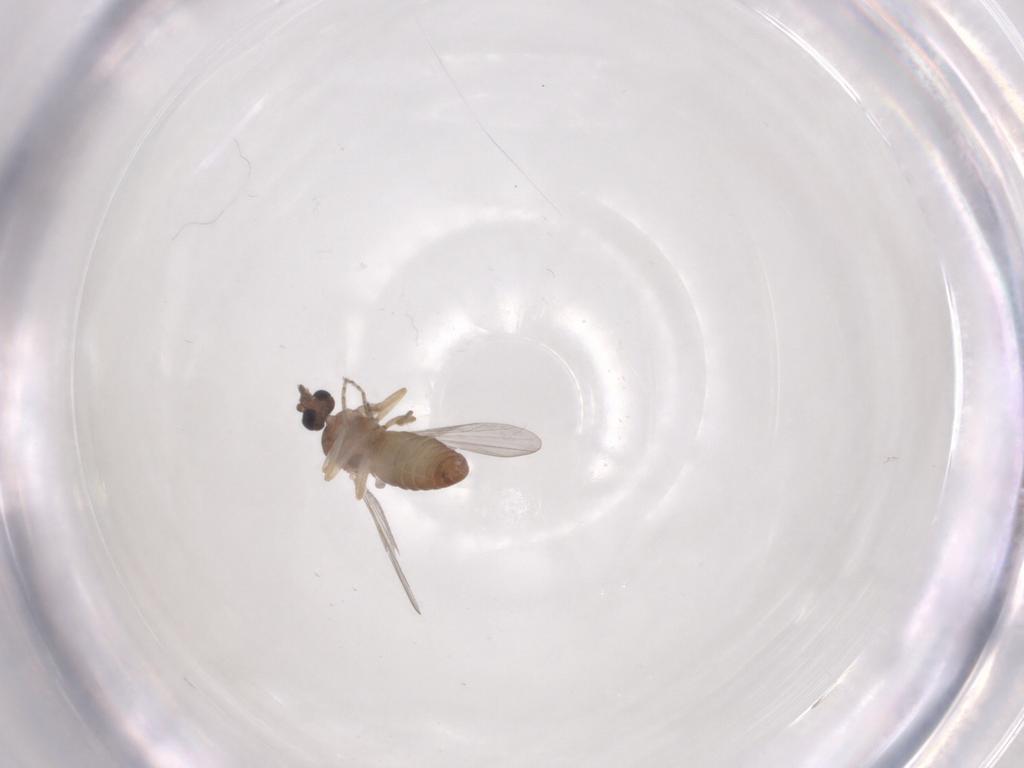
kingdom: Animalia
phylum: Arthropoda
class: Insecta
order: Diptera
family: Ceratopogonidae
